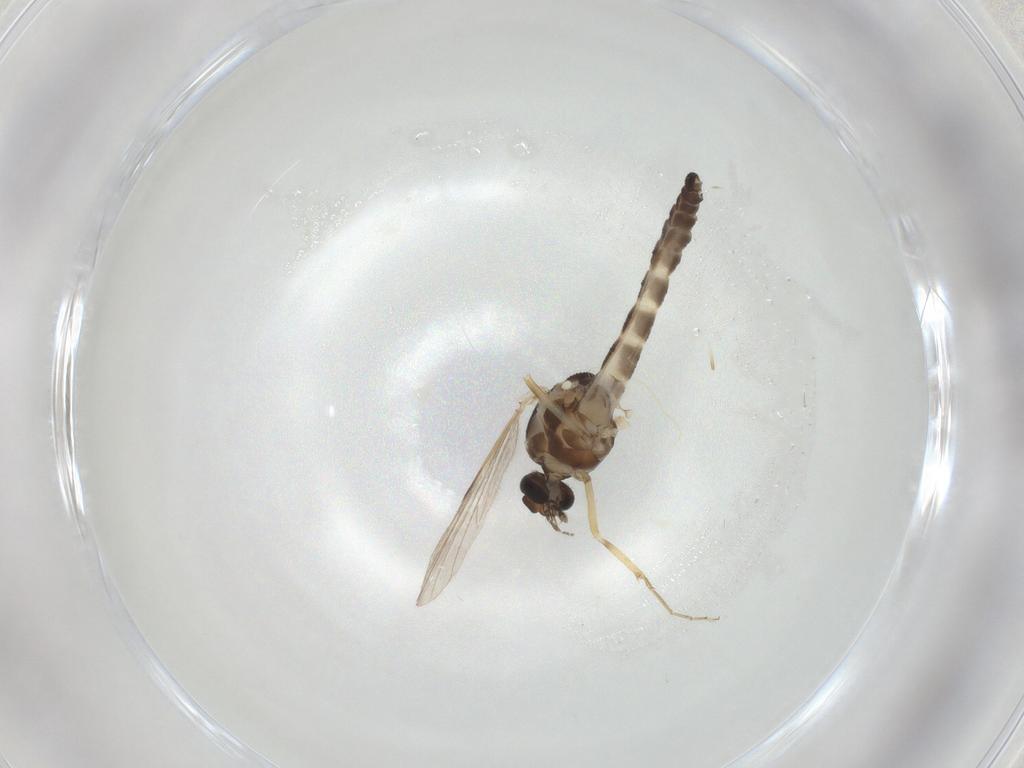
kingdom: Animalia
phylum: Arthropoda
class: Insecta
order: Diptera
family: Ceratopogonidae
